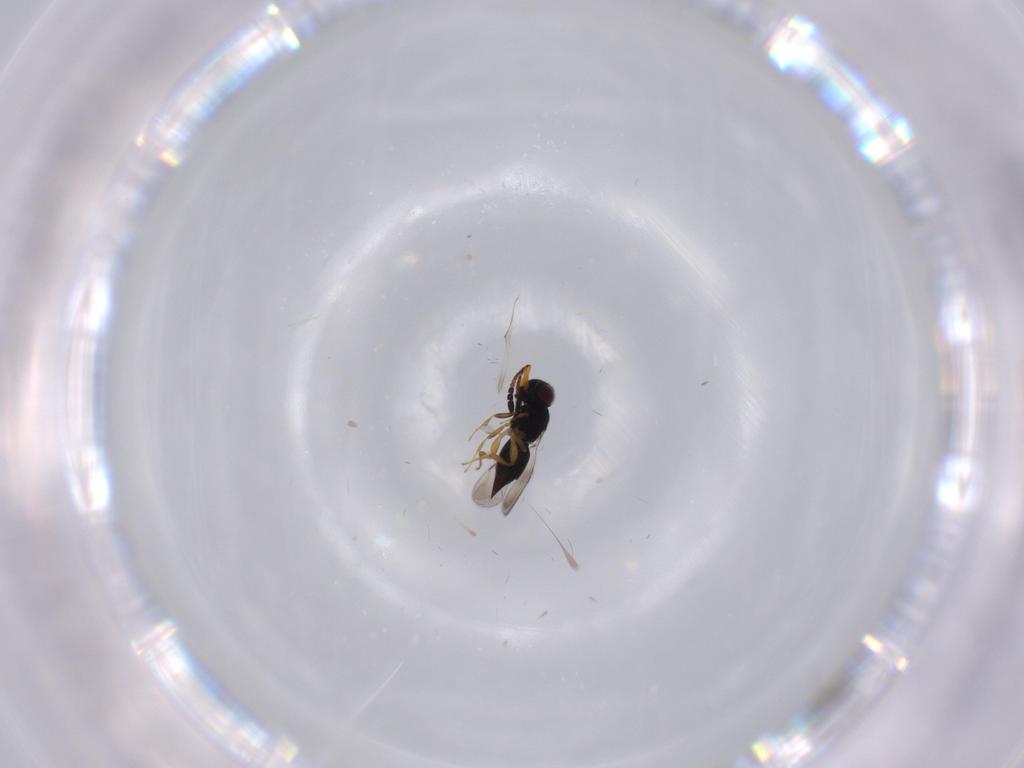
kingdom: Animalia
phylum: Arthropoda
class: Insecta
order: Hymenoptera
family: Ceraphronidae
